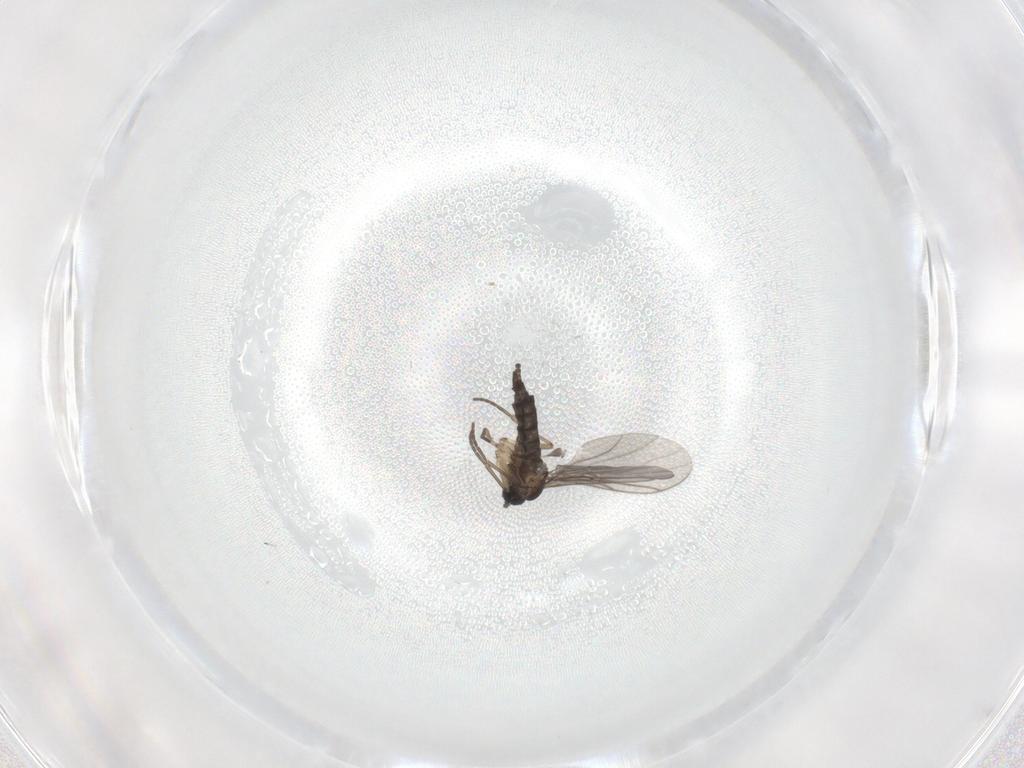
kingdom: Animalia
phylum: Arthropoda
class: Insecta
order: Diptera
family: Sciaridae
